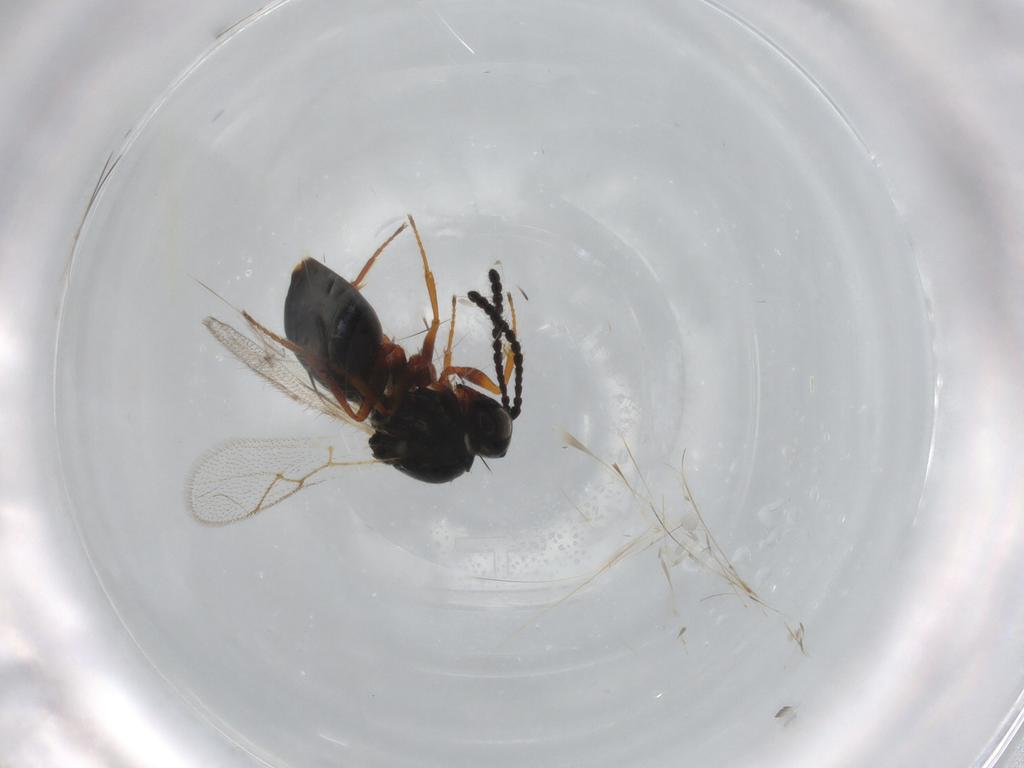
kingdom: Animalia
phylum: Arthropoda
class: Insecta
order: Hymenoptera
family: Figitidae
